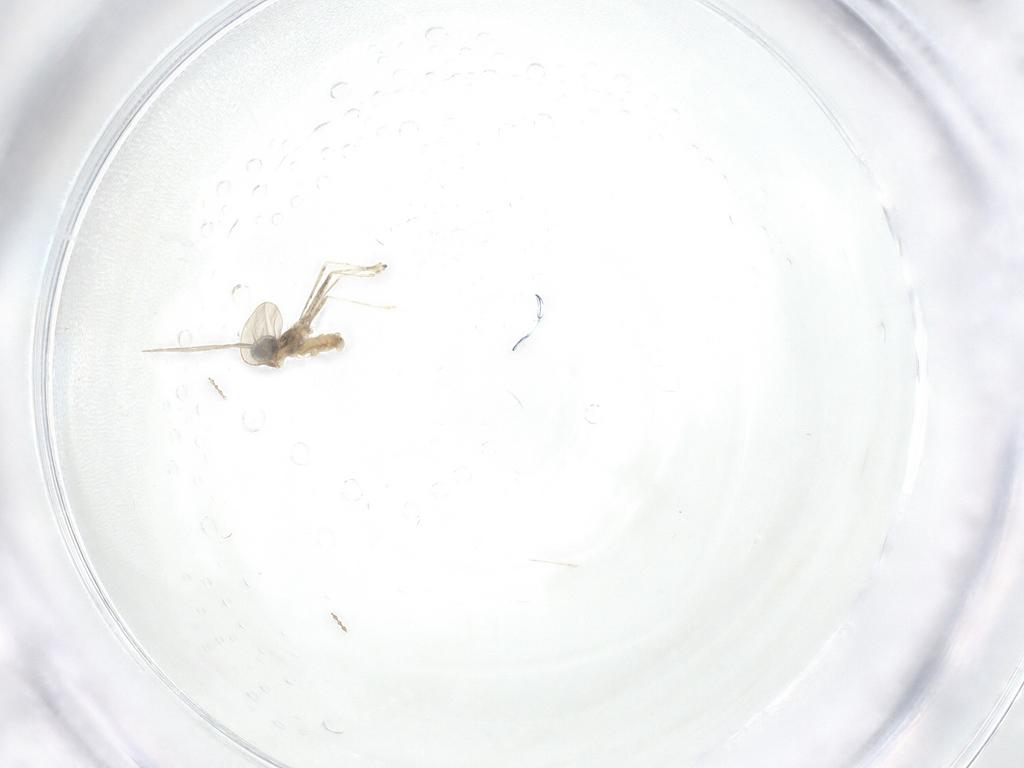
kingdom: Animalia
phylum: Arthropoda
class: Insecta
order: Diptera
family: Cecidomyiidae
